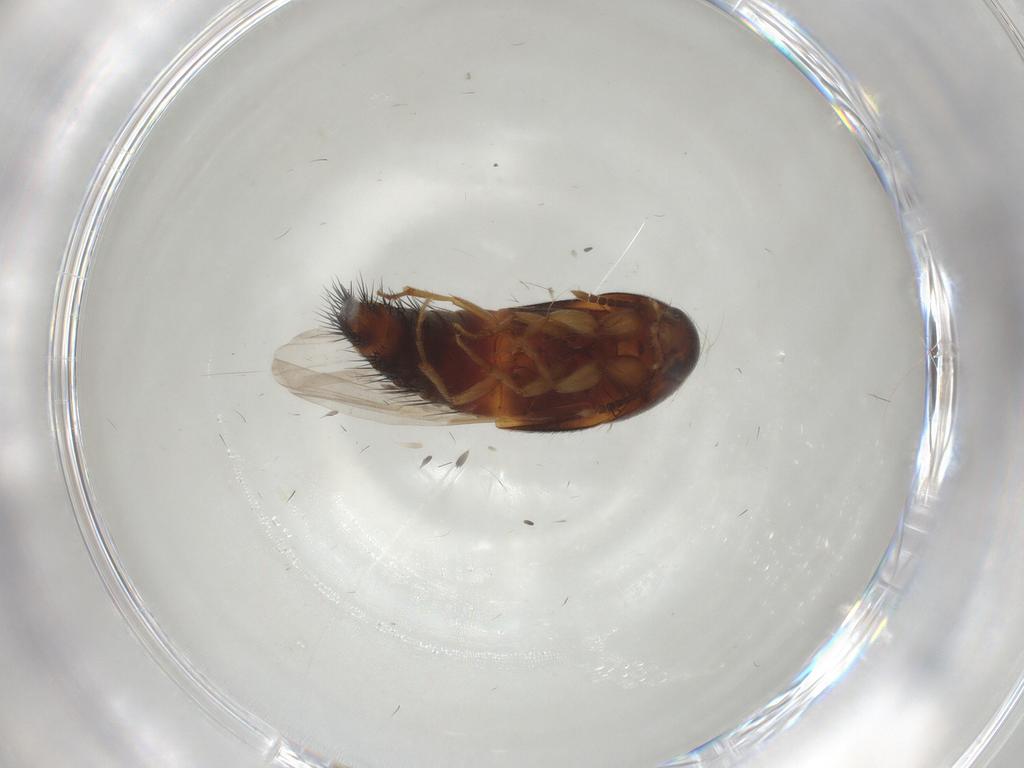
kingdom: Animalia
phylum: Arthropoda
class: Insecta
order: Coleoptera
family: Staphylinidae
